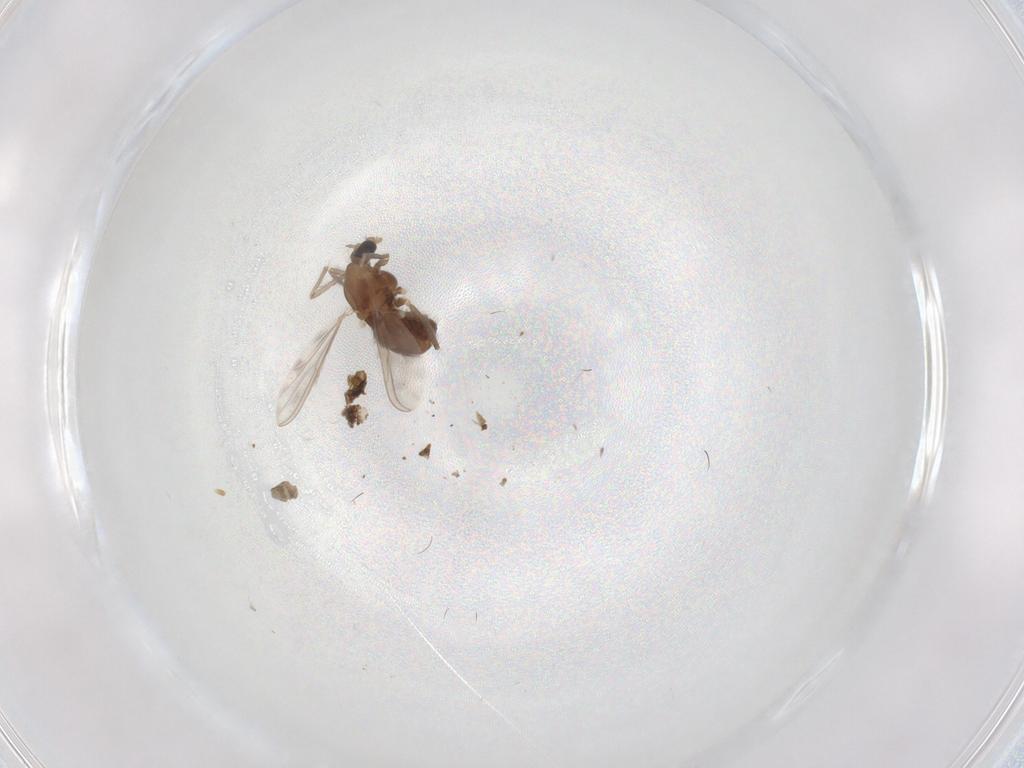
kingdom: Animalia
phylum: Arthropoda
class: Insecta
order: Diptera
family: Chironomidae
